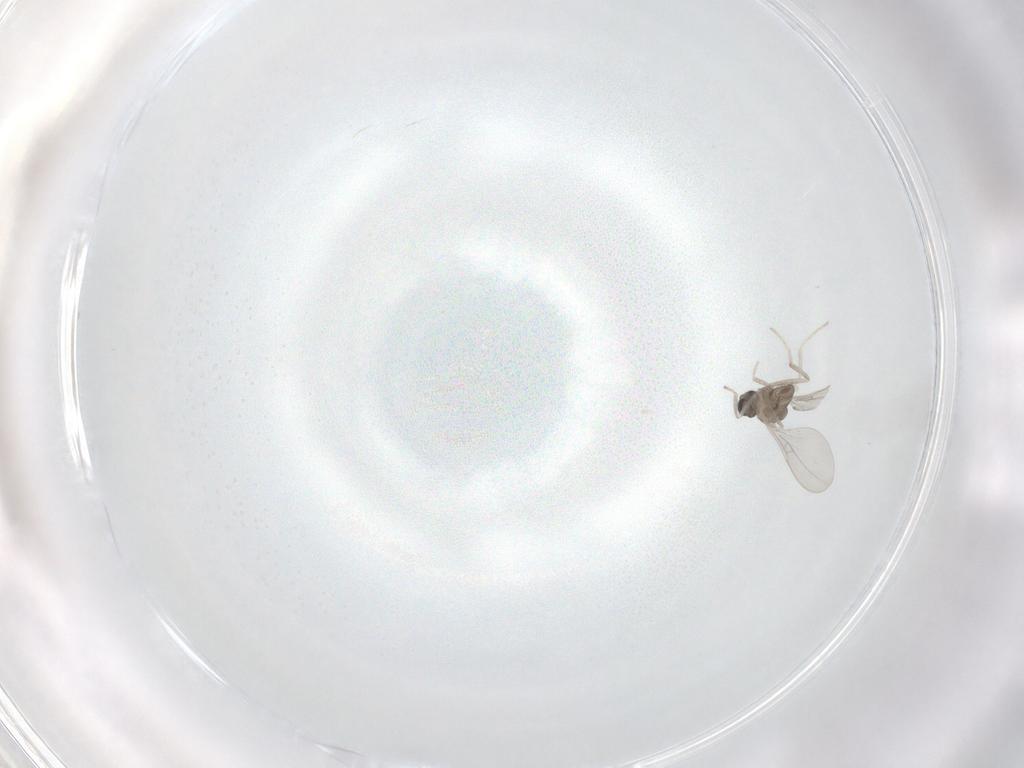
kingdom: Animalia
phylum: Arthropoda
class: Insecta
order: Diptera
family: Cecidomyiidae
